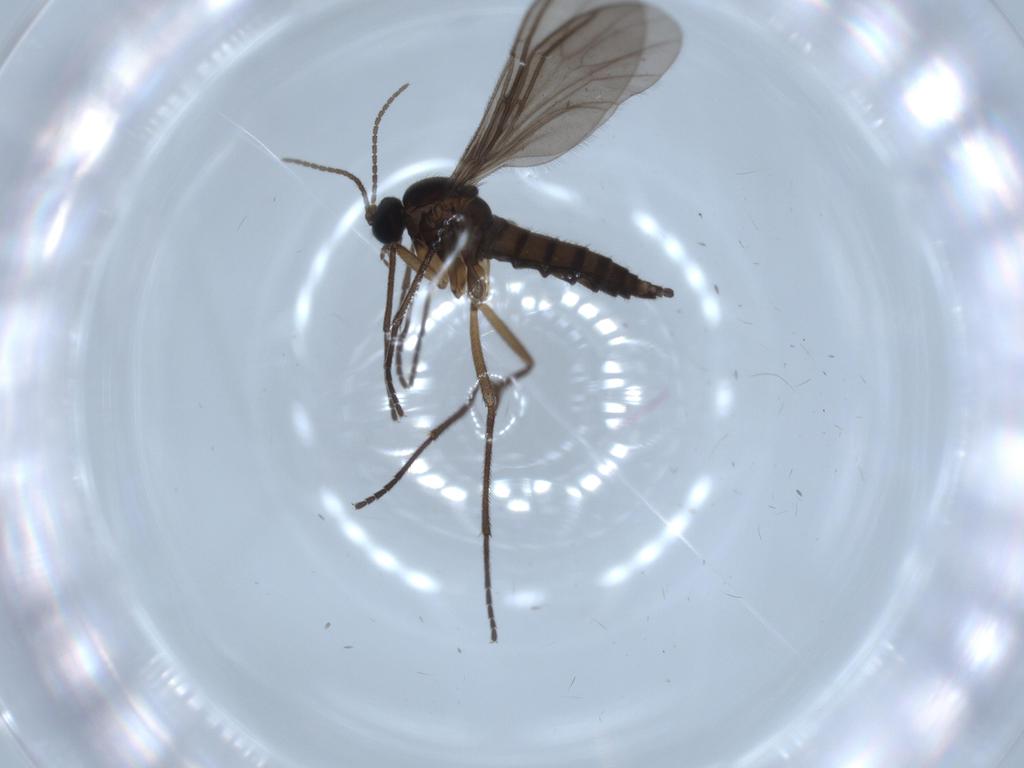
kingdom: Animalia
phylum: Arthropoda
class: Insecta
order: Diptera
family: Sciaridae
